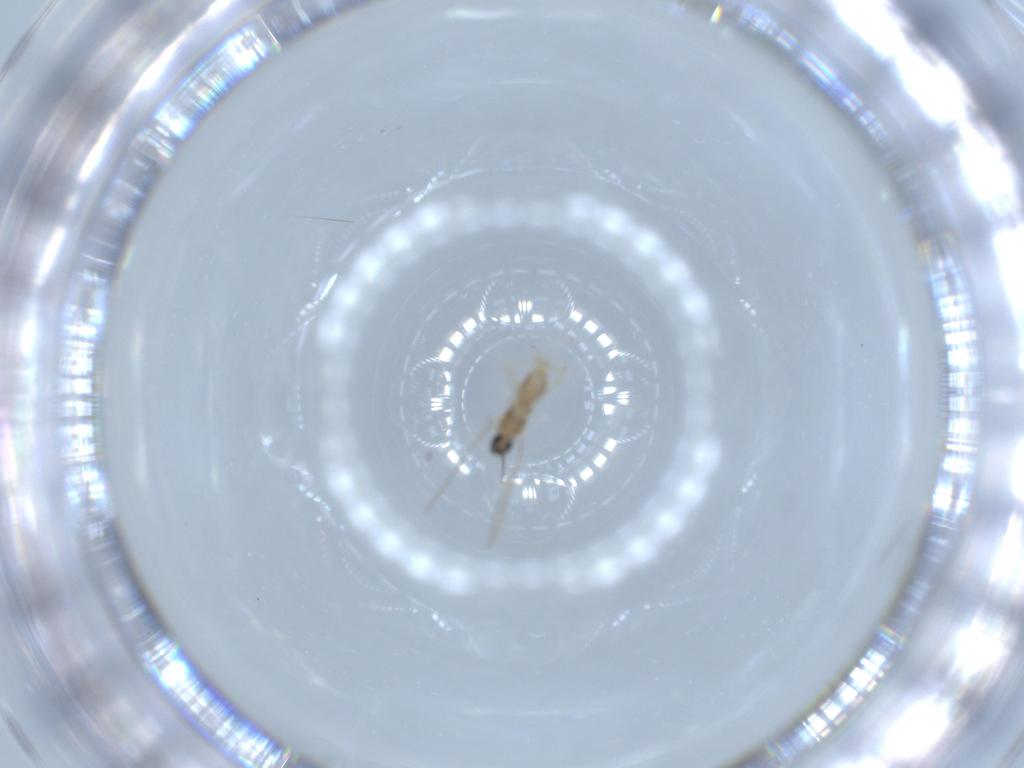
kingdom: Animalia
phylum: Arthropoda
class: Insecta
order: Diptera
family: Cecidomyiidae
